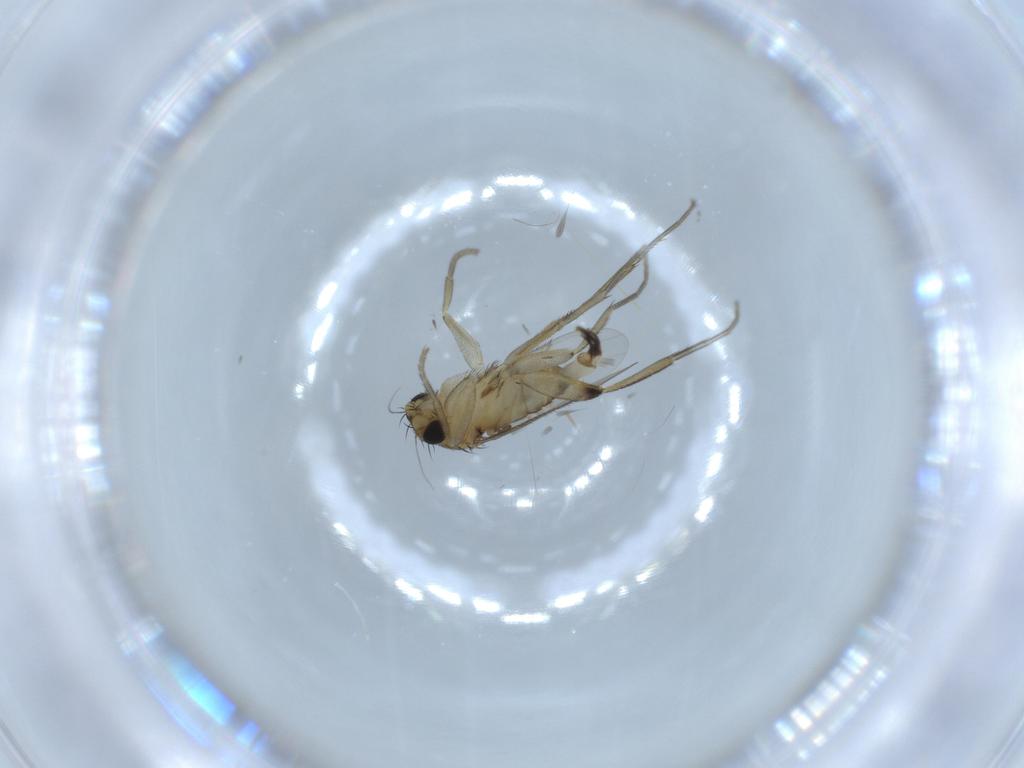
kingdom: Animalia
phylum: Arthropoda
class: Insecta
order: Diptera
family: Phoridae
